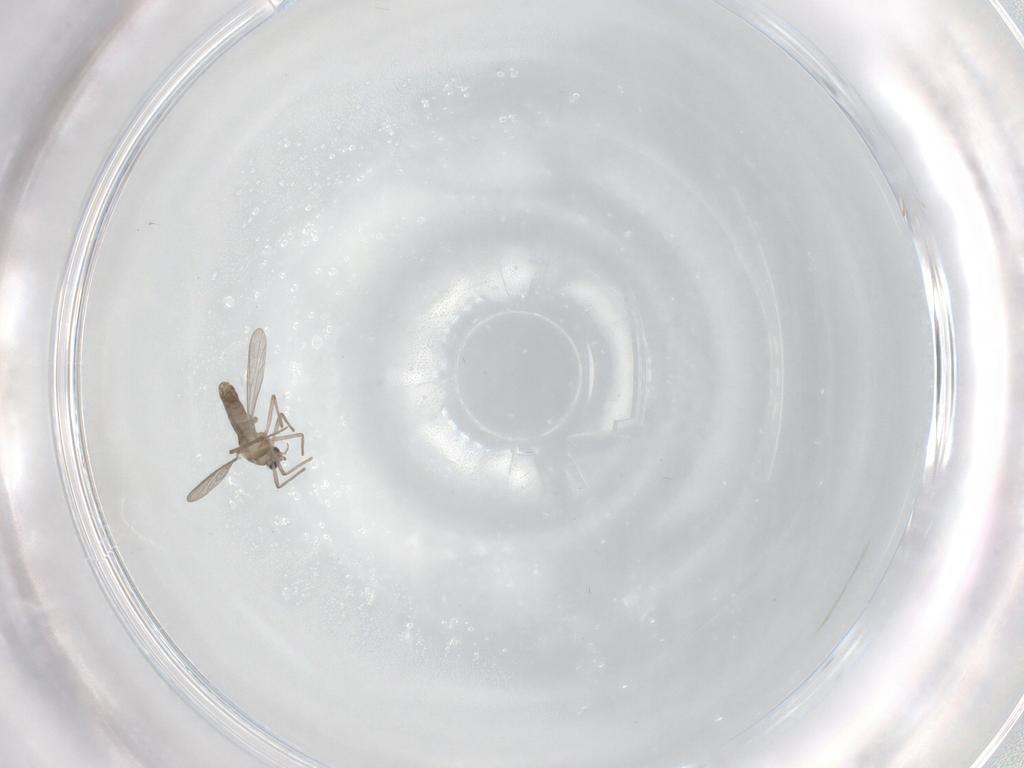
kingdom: Animalia
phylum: Arthropoda
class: Insecta
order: Diptera
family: Chironomidae
